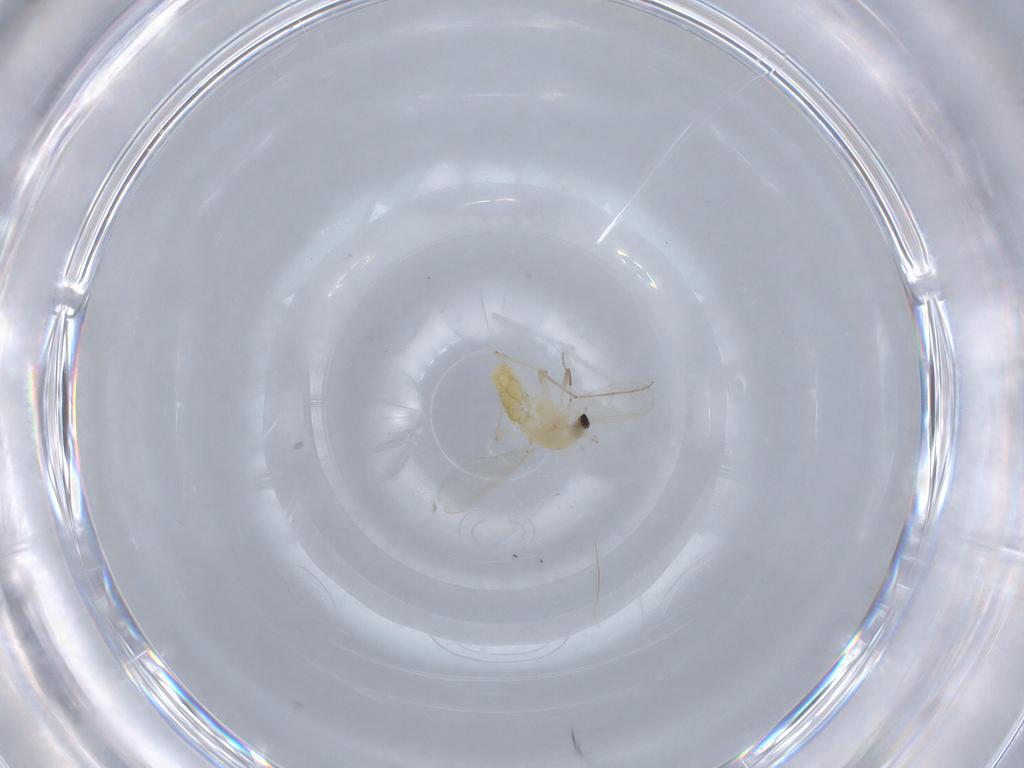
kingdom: Animalia
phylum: Arthropoda
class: Insecta
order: Diptera
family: Chironomidae
